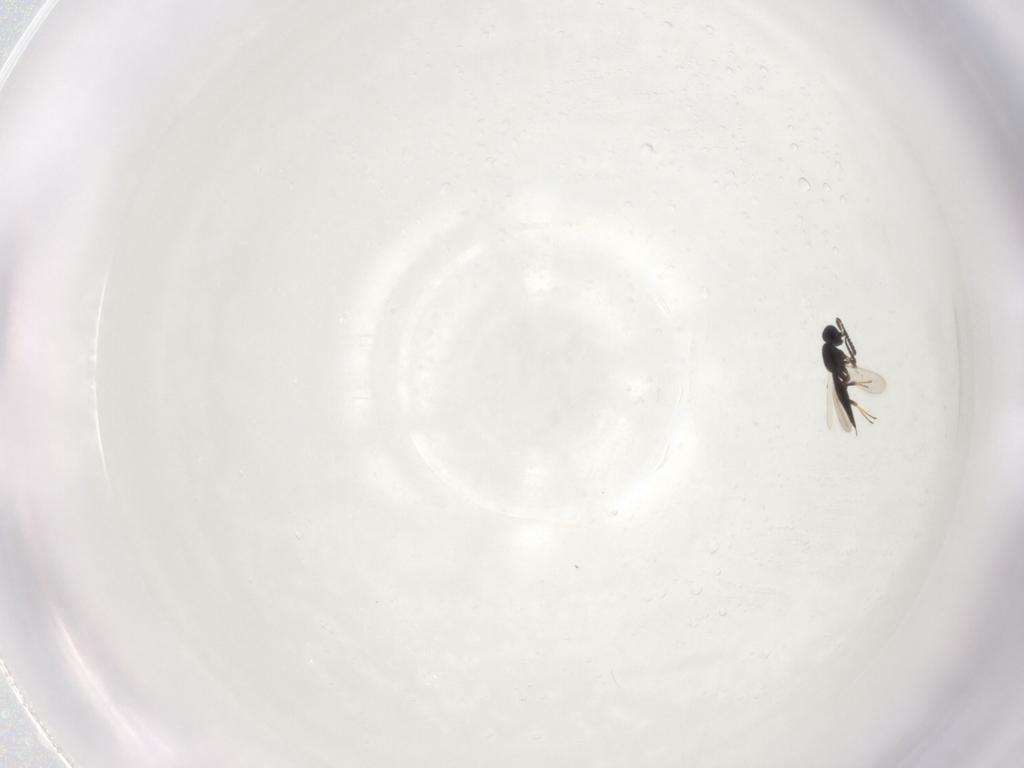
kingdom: Animalia
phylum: Arthropoda
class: Insecta
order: Hymenoptera
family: Scelionidae
